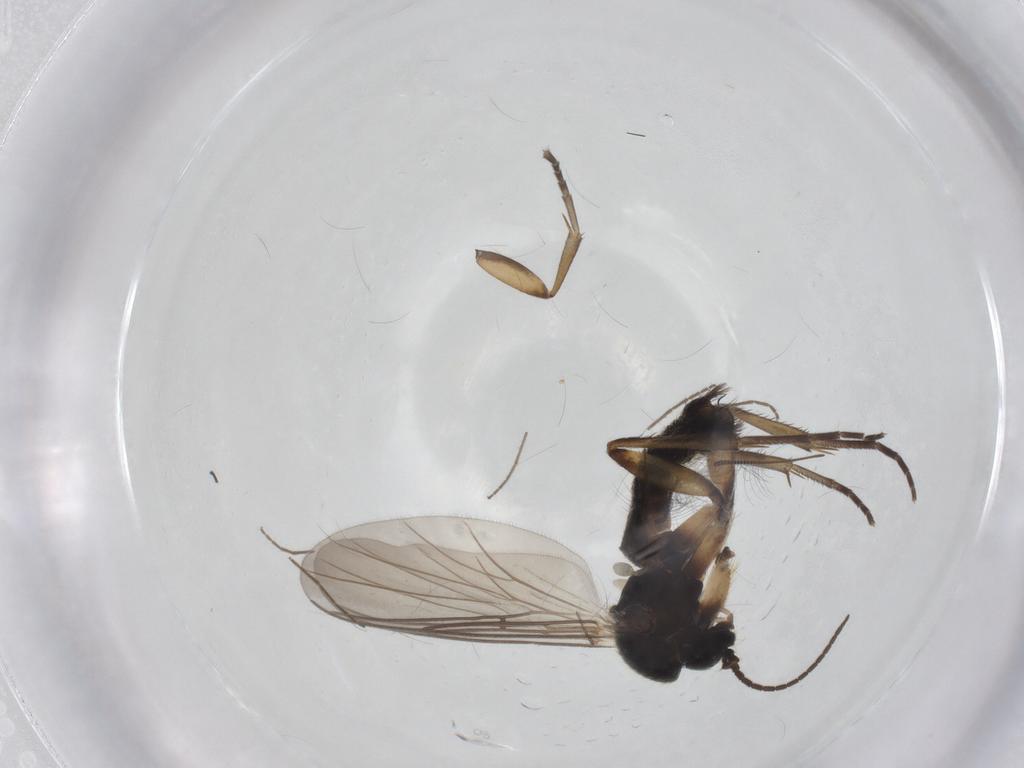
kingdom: Animalia
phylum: Arthropoda
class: Insecta
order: Diptera
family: Mycetophilidae
